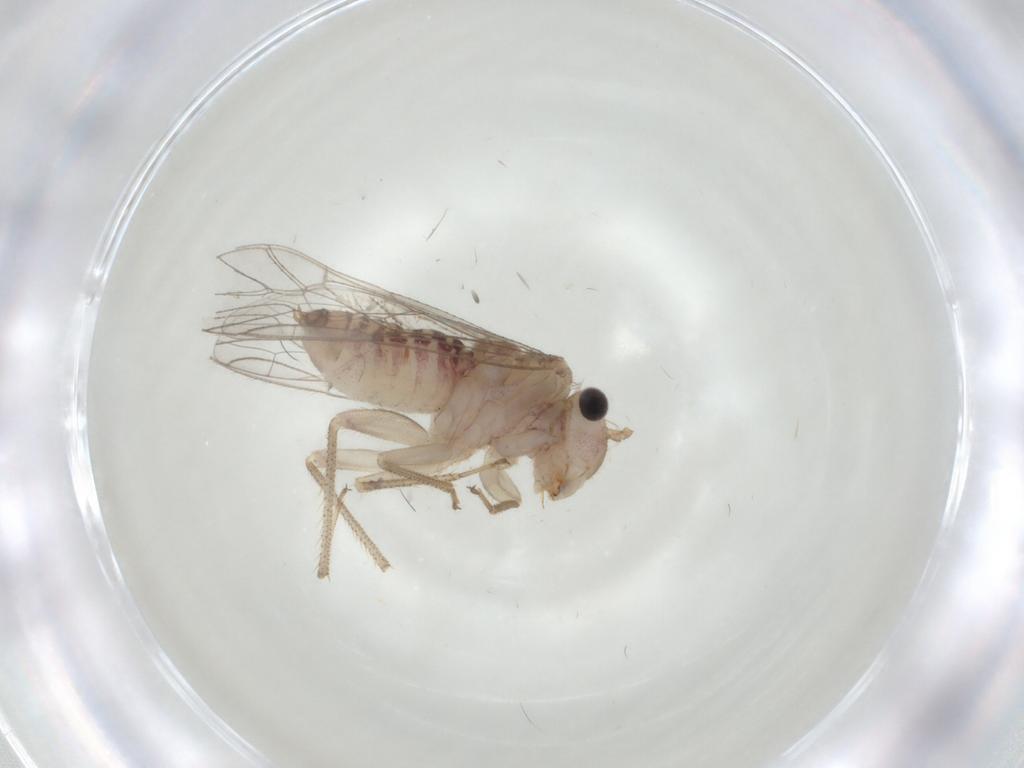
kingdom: Animalia
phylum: Arthropoda
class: Insecta
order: Psocodea
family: Philotarsidae
